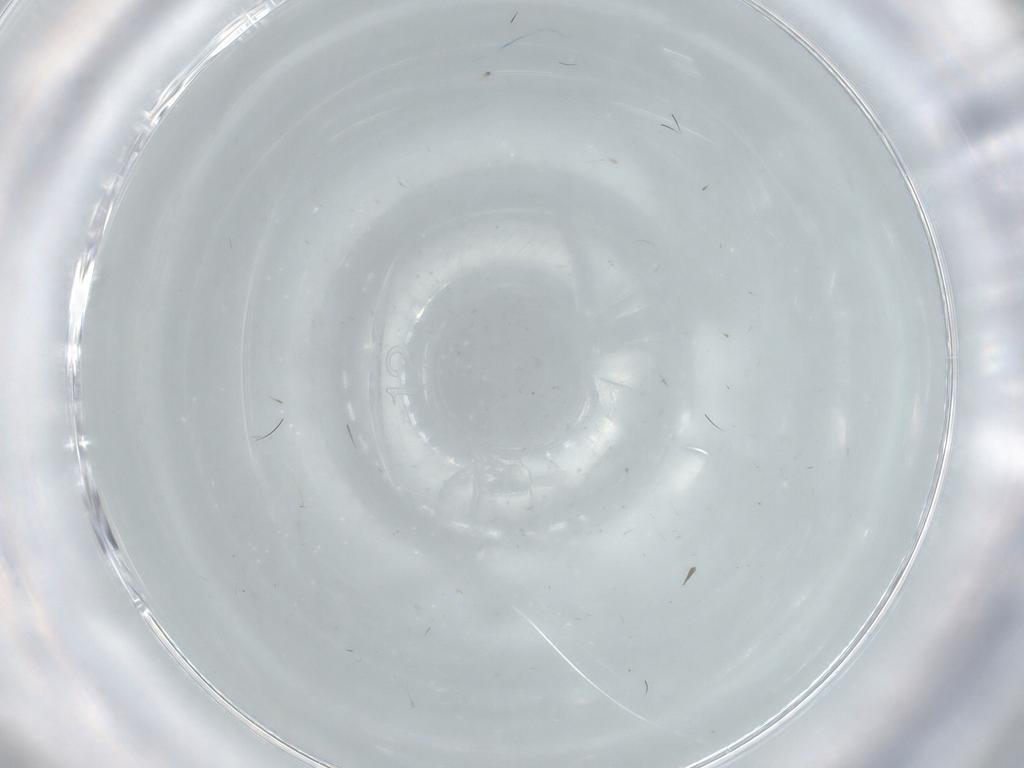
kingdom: Animalia
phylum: Arthropoda
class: Insecta
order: Diptera
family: Cecidomyiidae
